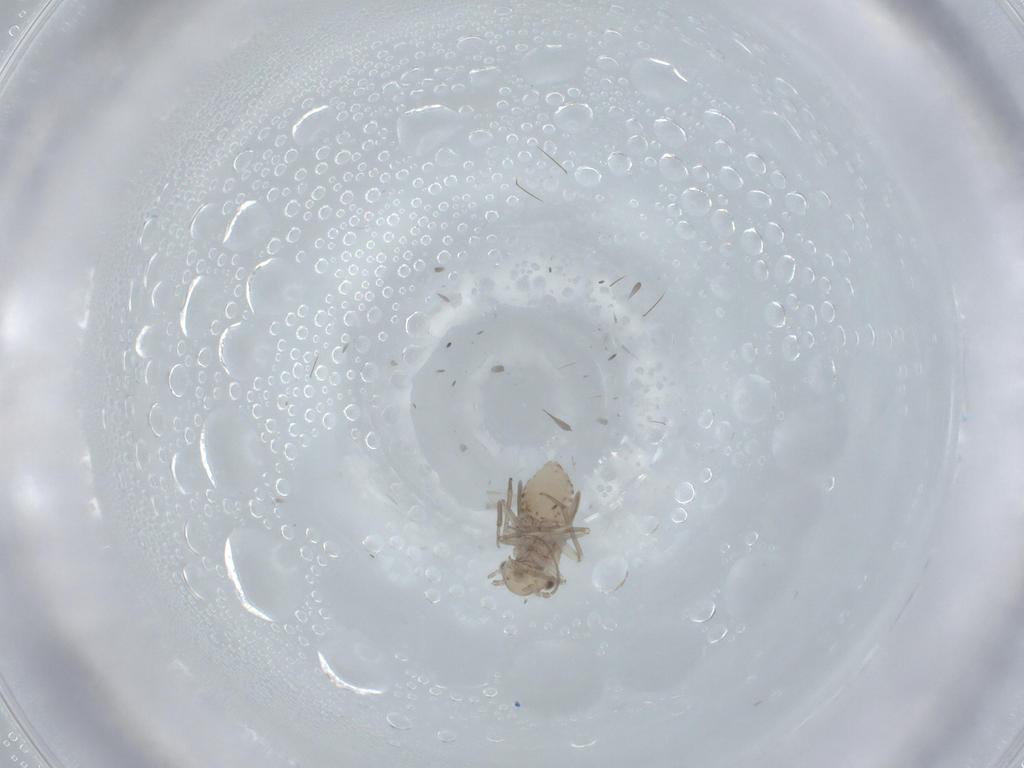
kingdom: Animalia
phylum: Arthropoda
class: Insecta
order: Psocodea
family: Lachesillidae
